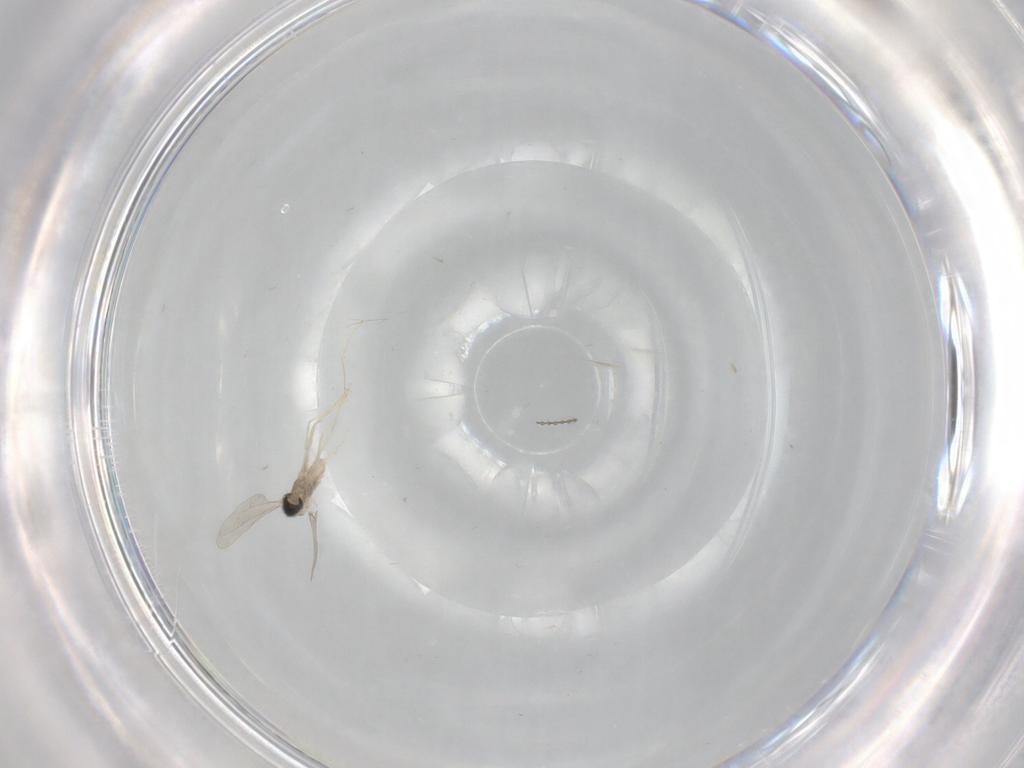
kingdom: Animalia
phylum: Arthropoda
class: Insecta
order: Diptera
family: Cecidomyiidae
